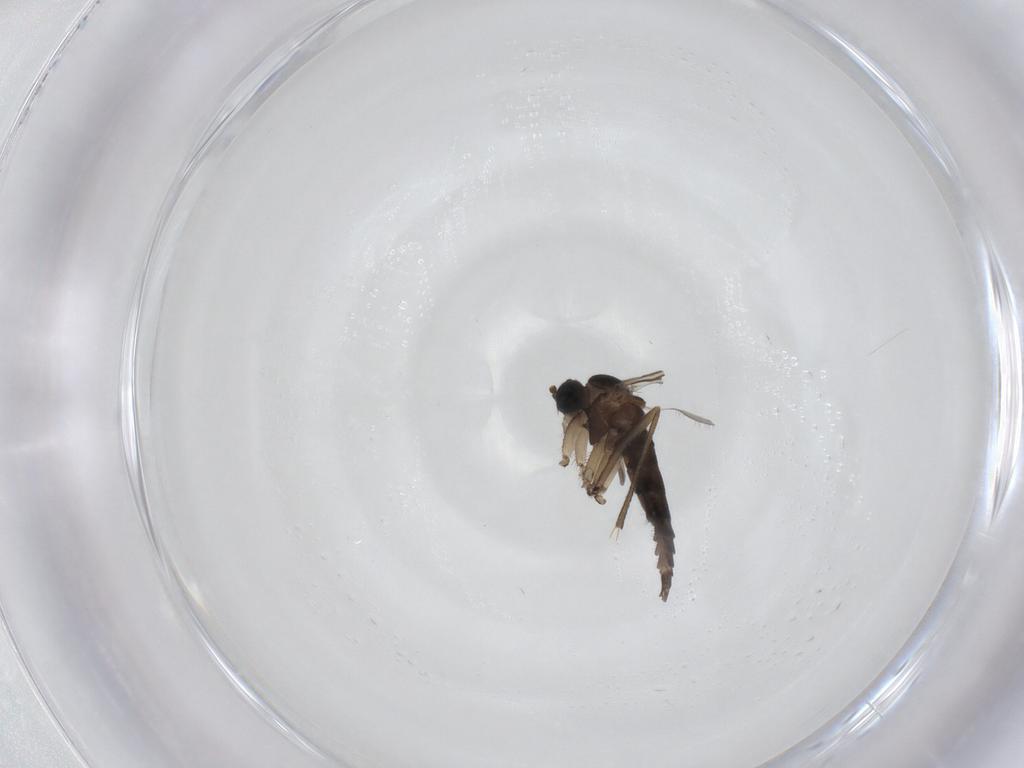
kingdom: Animalia
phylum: Arthropoda
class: Insecta
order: Diptera
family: Sciaridae
